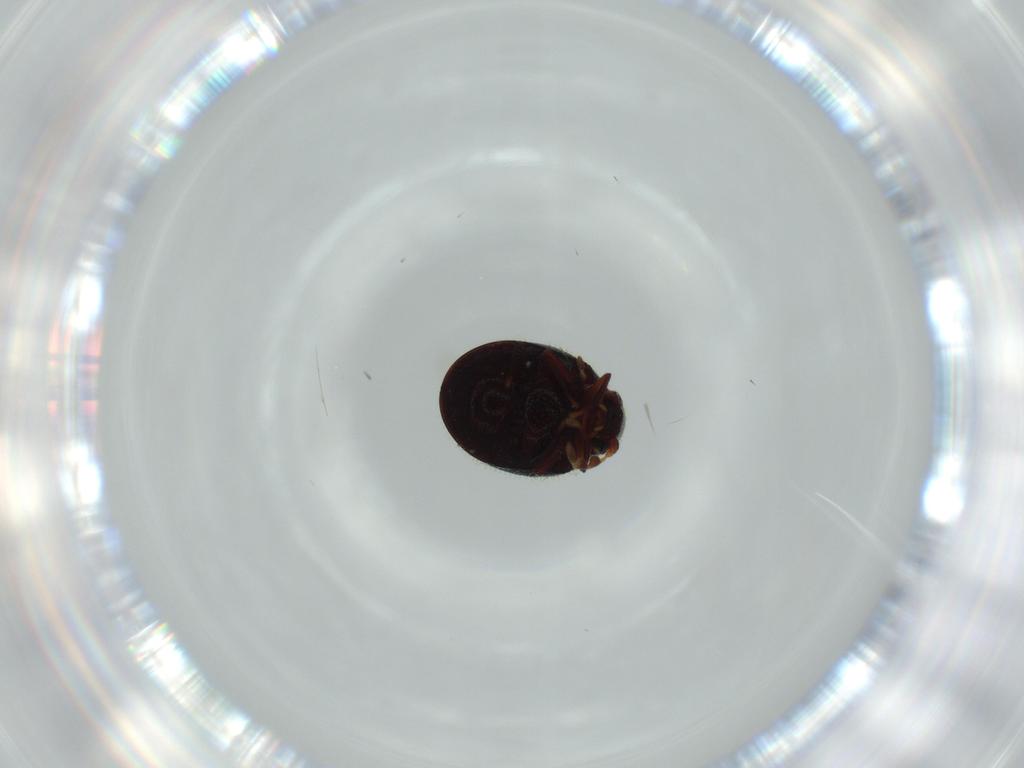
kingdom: Animalia
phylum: Arthropoda
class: Insecta
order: Coleoptera
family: Ptinidae
